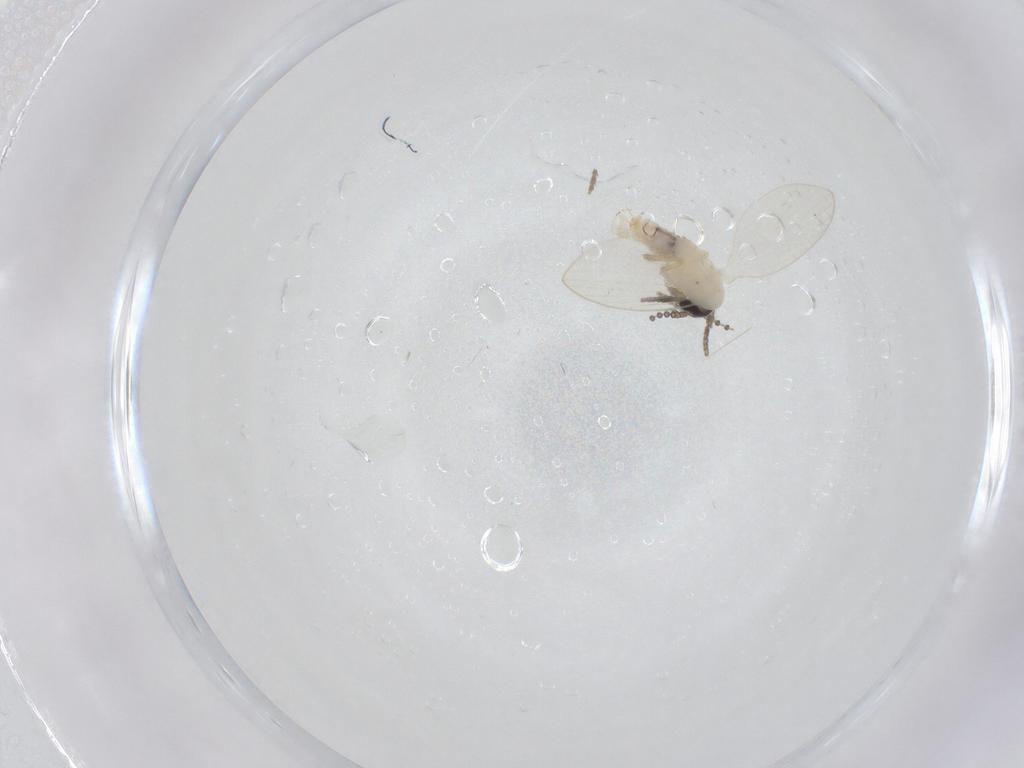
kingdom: Animalia
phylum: Arthropoda
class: Insecta
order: Diptera
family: Psychodidae
